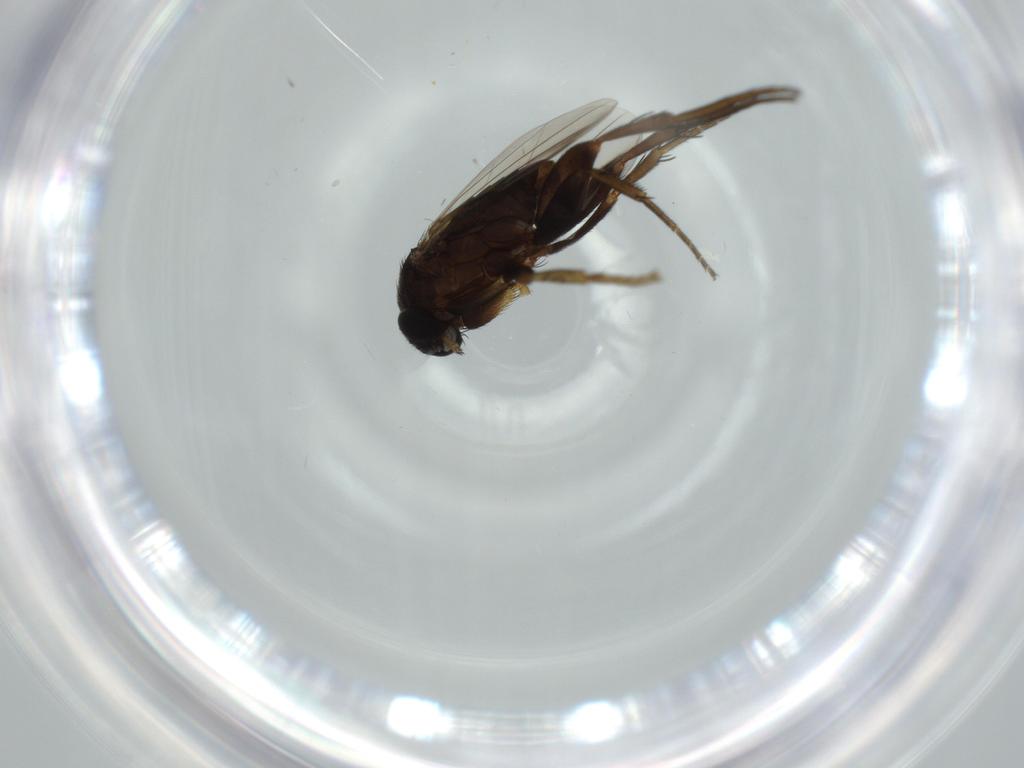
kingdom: Animalia
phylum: Arthropoda
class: Insecta
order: Diptera
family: Phoridae
